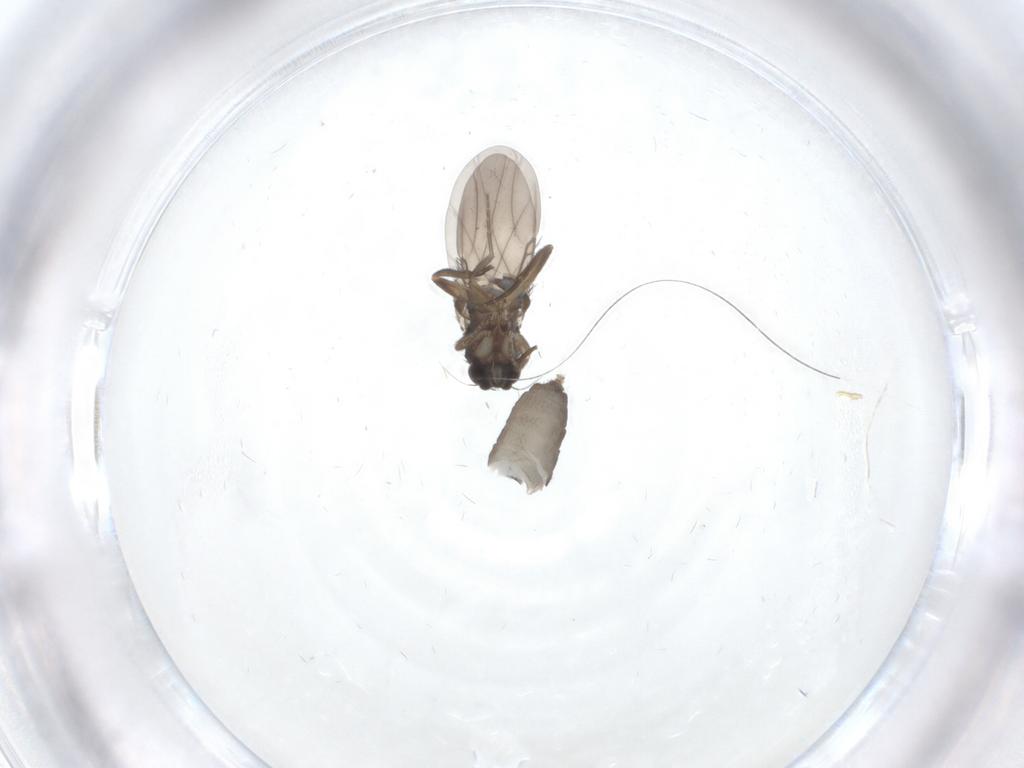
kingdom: Animalia
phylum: Arthropoda
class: Insecta
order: Diptera
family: Phoridae
